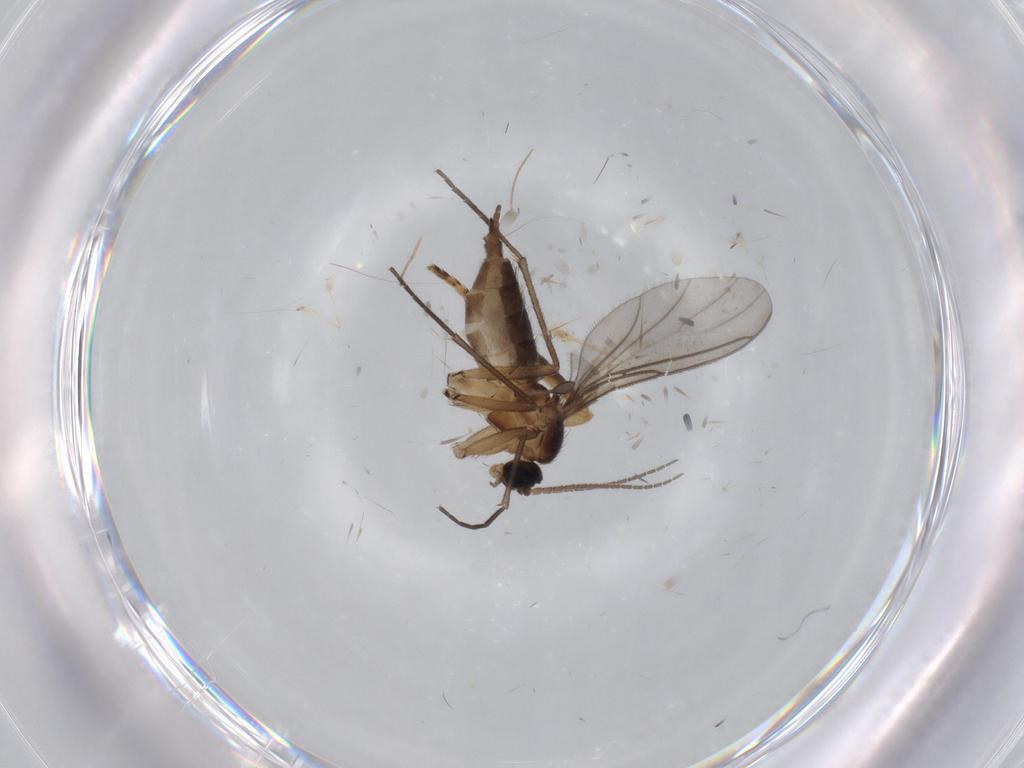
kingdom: Animalia
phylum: Arthropoda
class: Insecta
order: Diptera
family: Sciaridae
